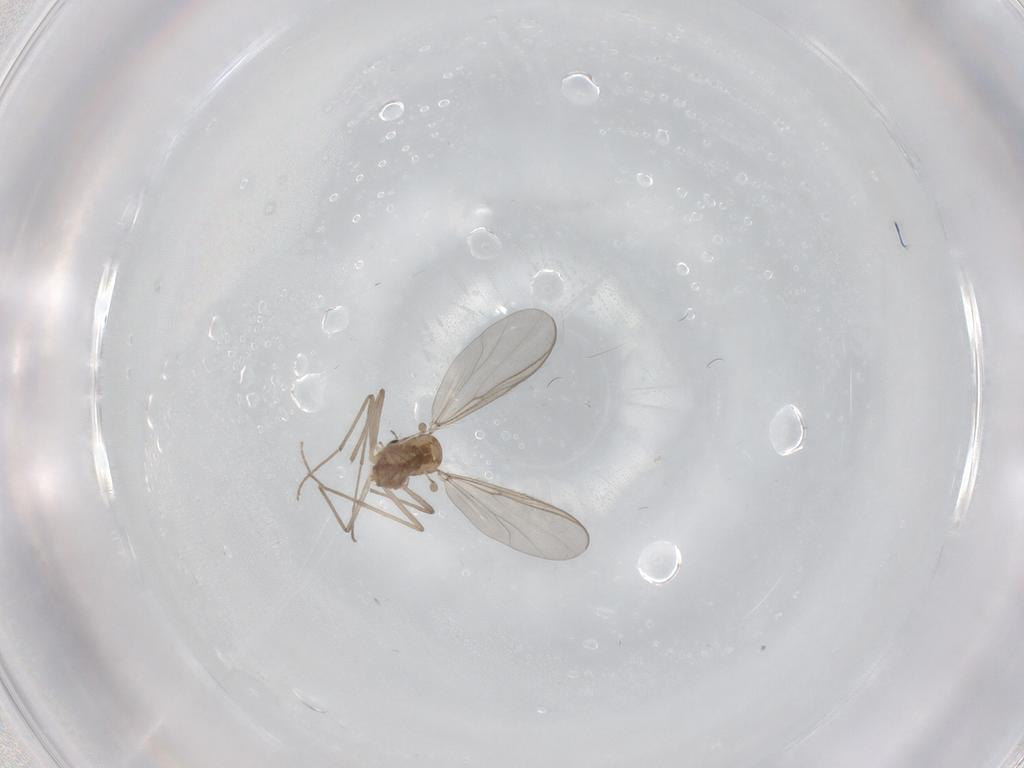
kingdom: Animalia
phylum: Arthropoda
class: Insecta
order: Diptera
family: Chironomidae
